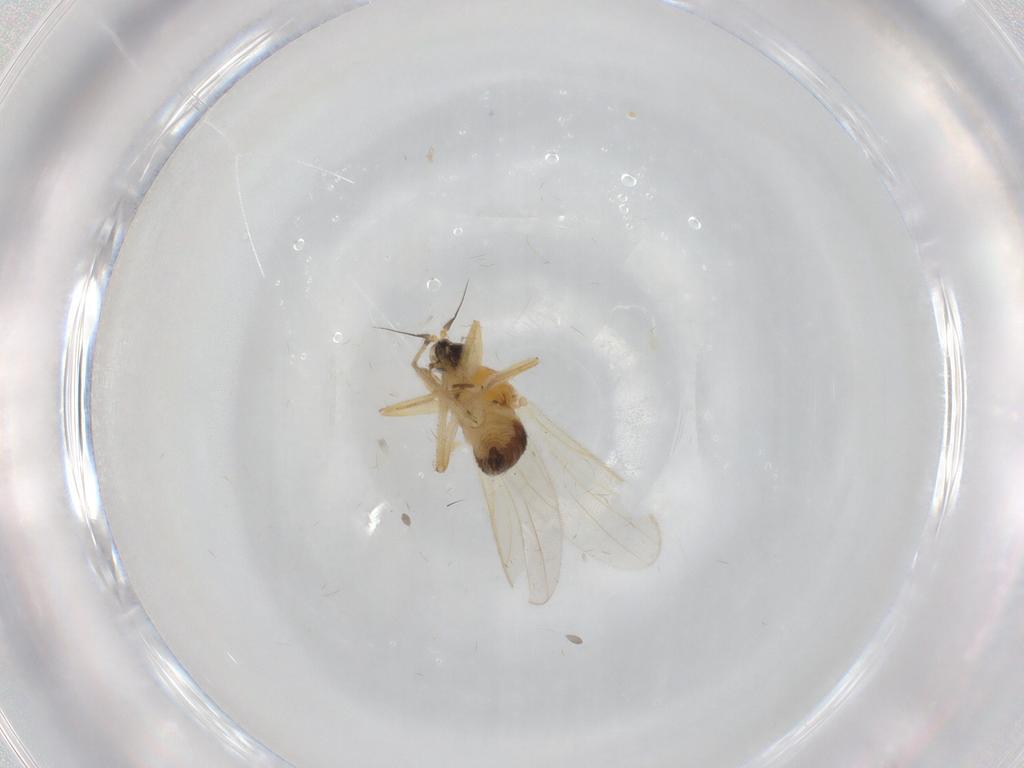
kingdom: Animalia
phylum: Arthropoda
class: Insecta
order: Diptera
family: Hybotidae
